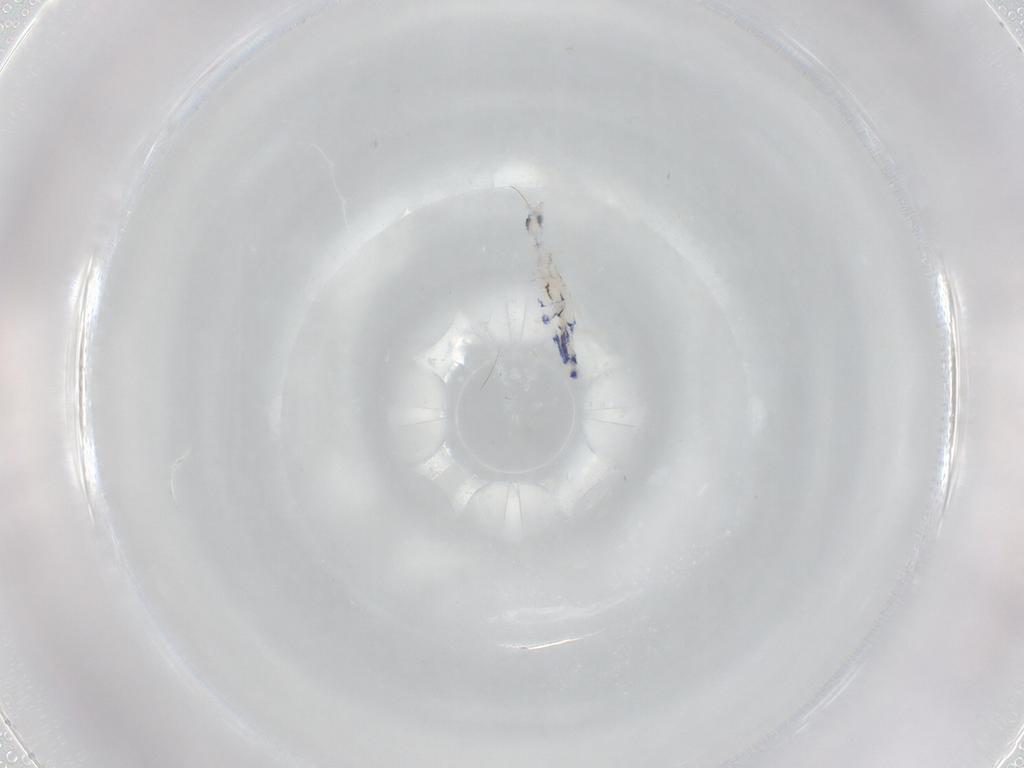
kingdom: Animalia
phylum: Arthropoda
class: Collembola
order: Entomobryomorpha
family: Entomobryidae
